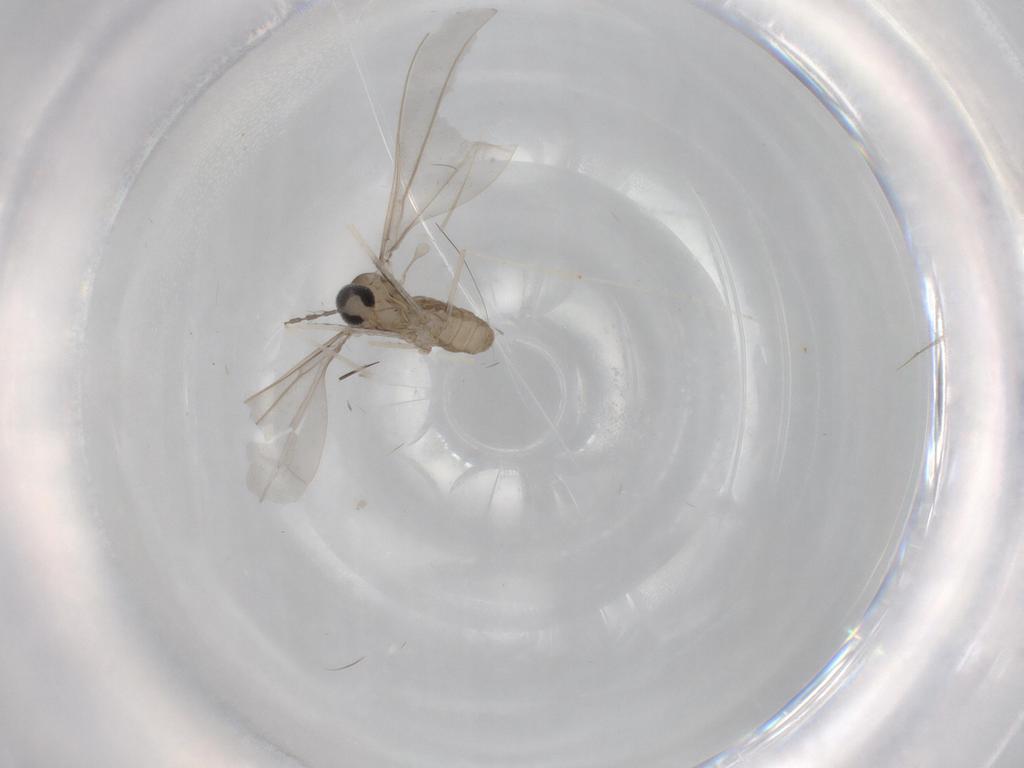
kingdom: Animalia
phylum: Arthropoda
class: Insecta
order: Diptera
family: Cecidomyiidae
